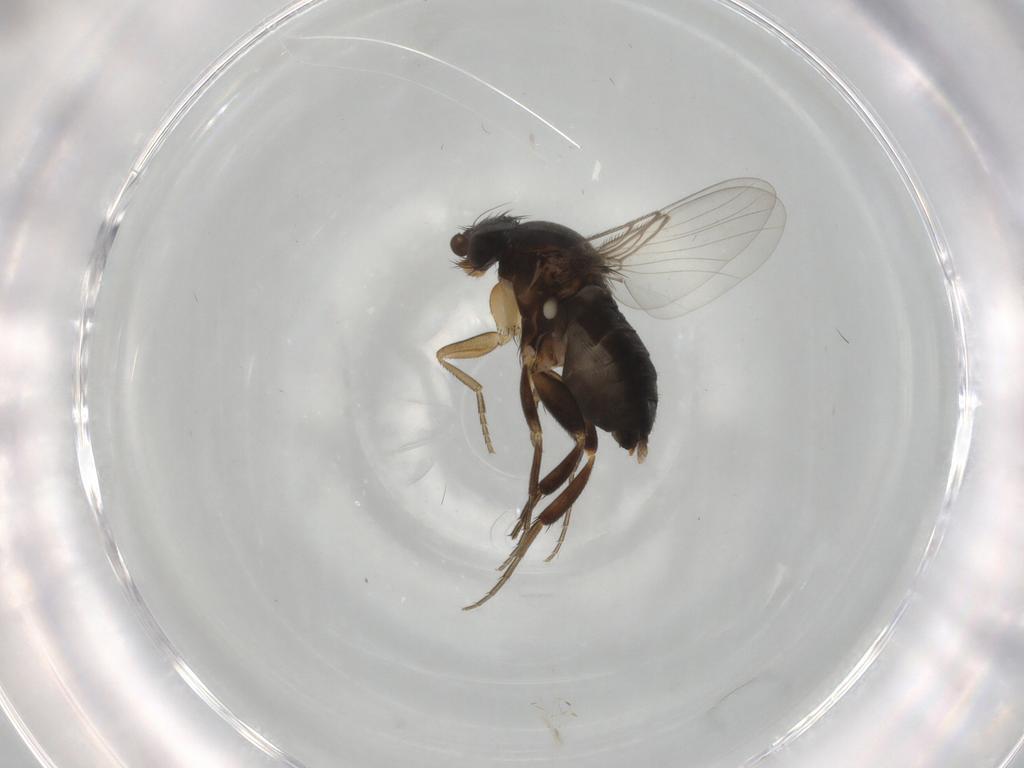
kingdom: Animalia
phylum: Arthropoda
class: Insecta
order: Diptera
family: Phoridae
